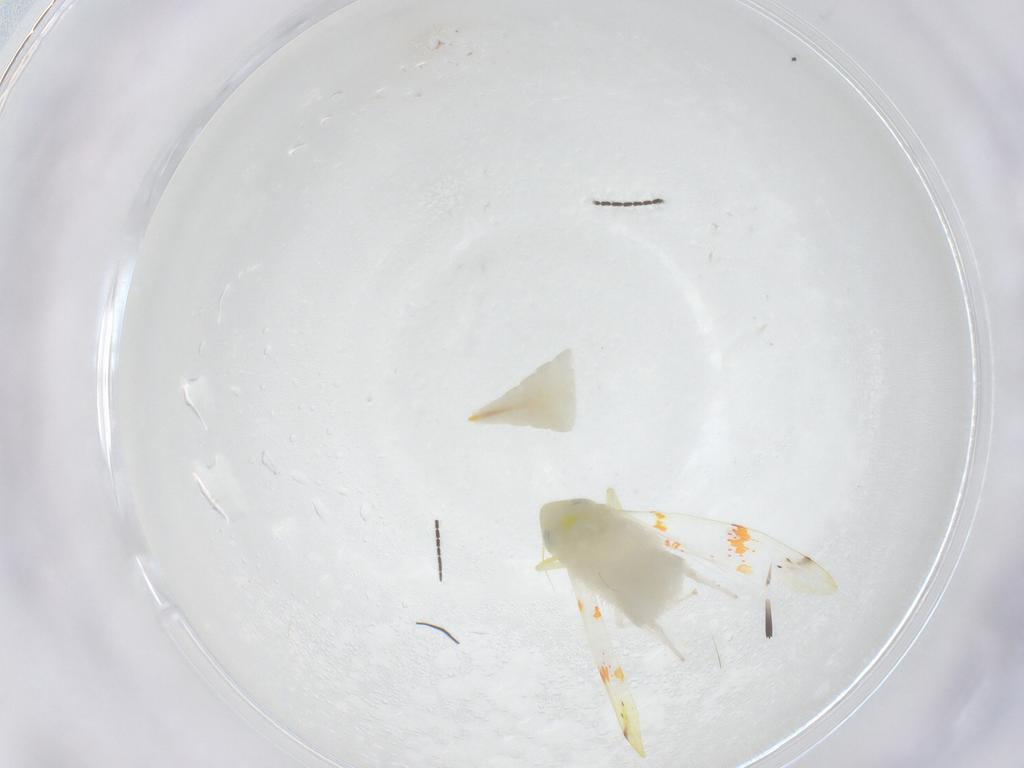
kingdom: Animalia
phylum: Arthropoda
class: Insecta
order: Hemiptera
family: Cicadellidae
